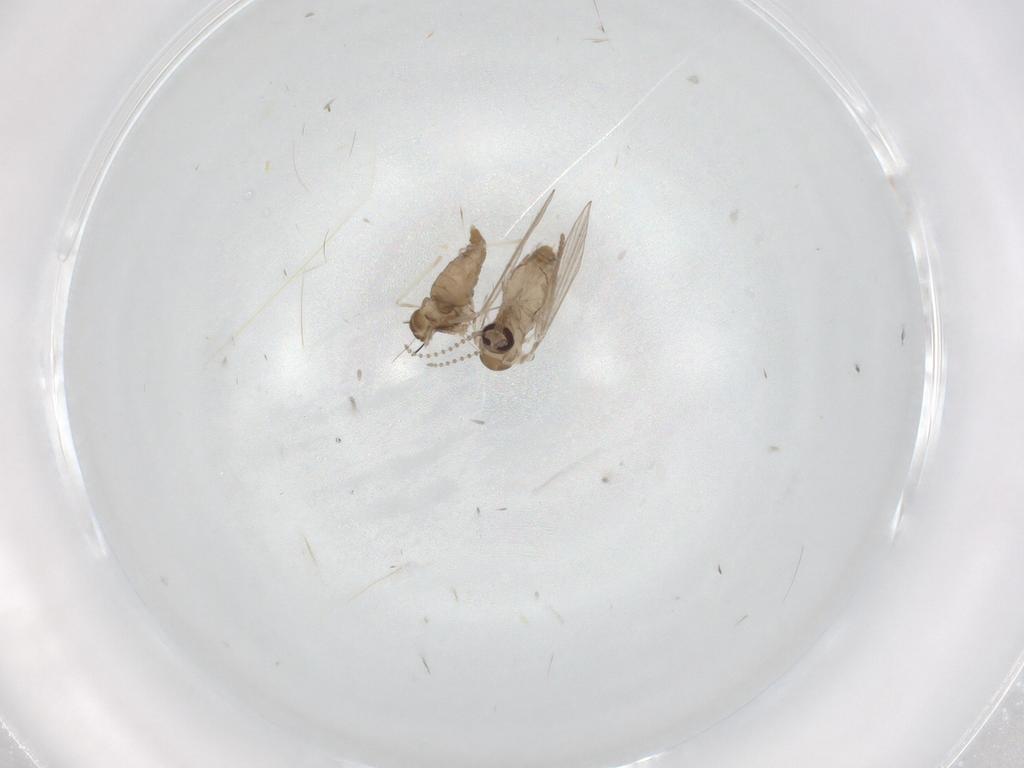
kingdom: Animalia
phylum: Arthropoda
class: Insecta
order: Diptera
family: Psychodidae
